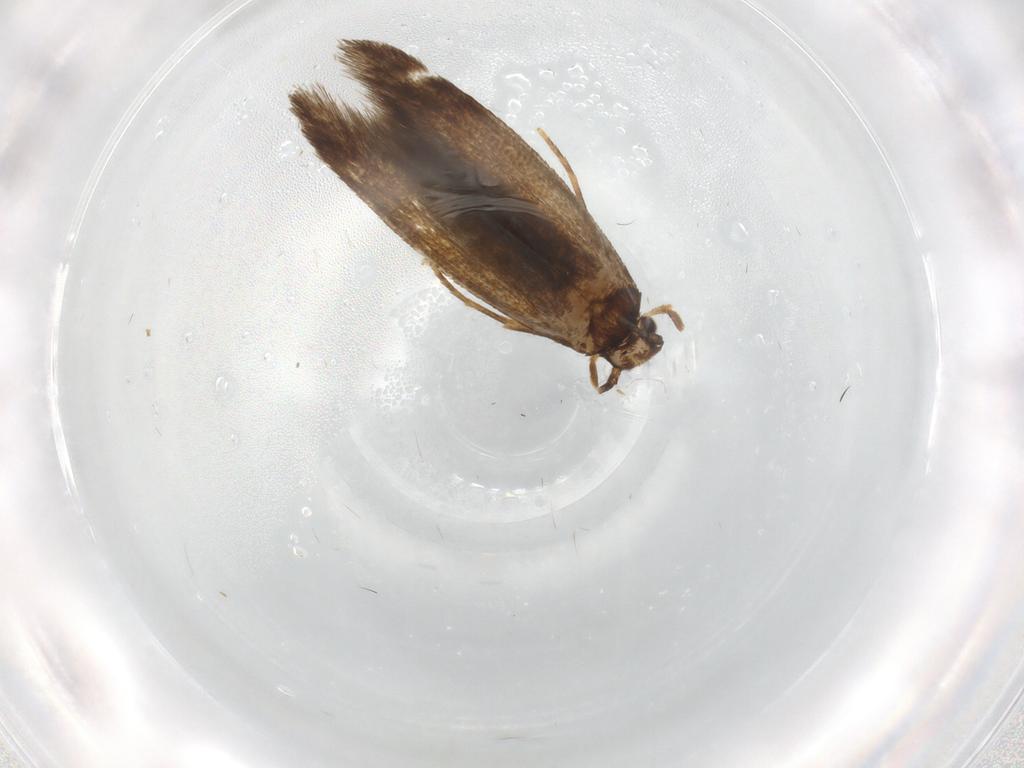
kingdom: Animalia
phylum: Arthropoda
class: Insecta
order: Lepidoptera
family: Tineidae
